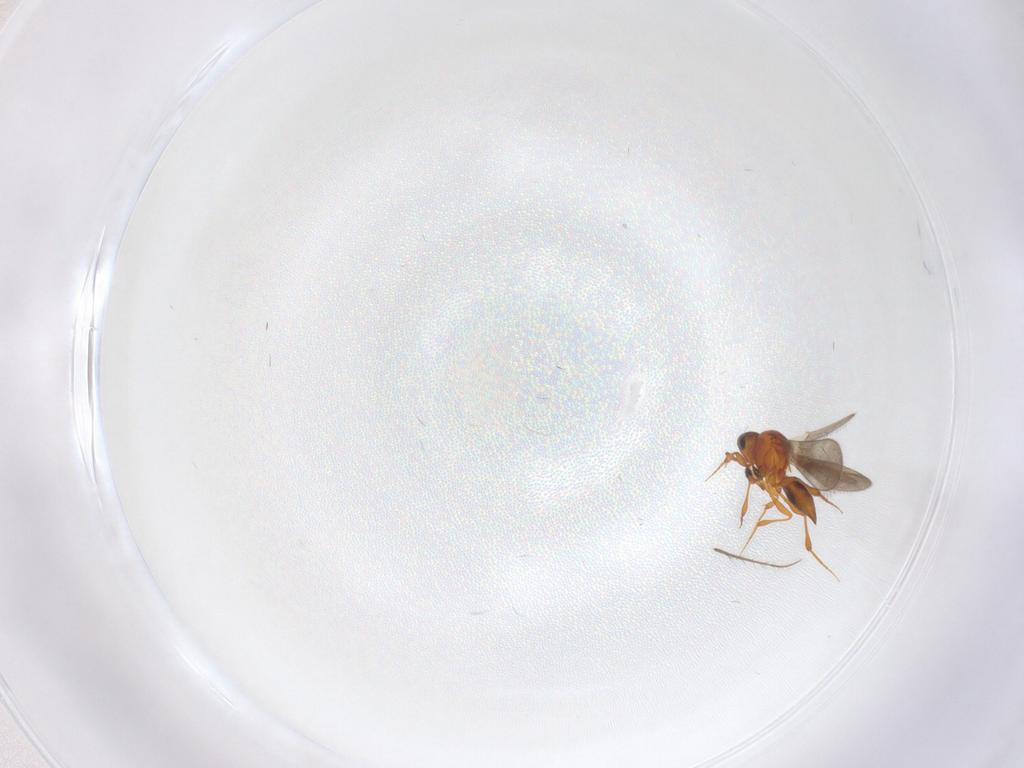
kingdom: Animalia
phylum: Arthropoda
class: Insecta
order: Hymenoptera
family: Platygastridae
